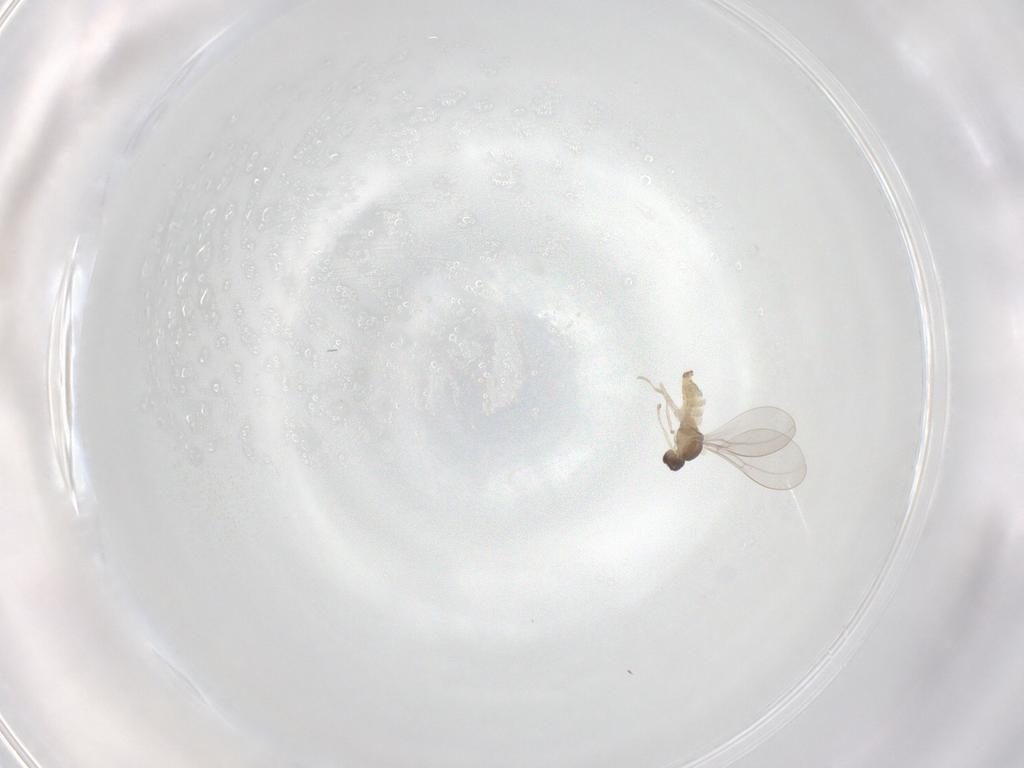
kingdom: Animalia
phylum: Arthropoda
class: Insecta
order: Diptera
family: Cecidomyiidae
